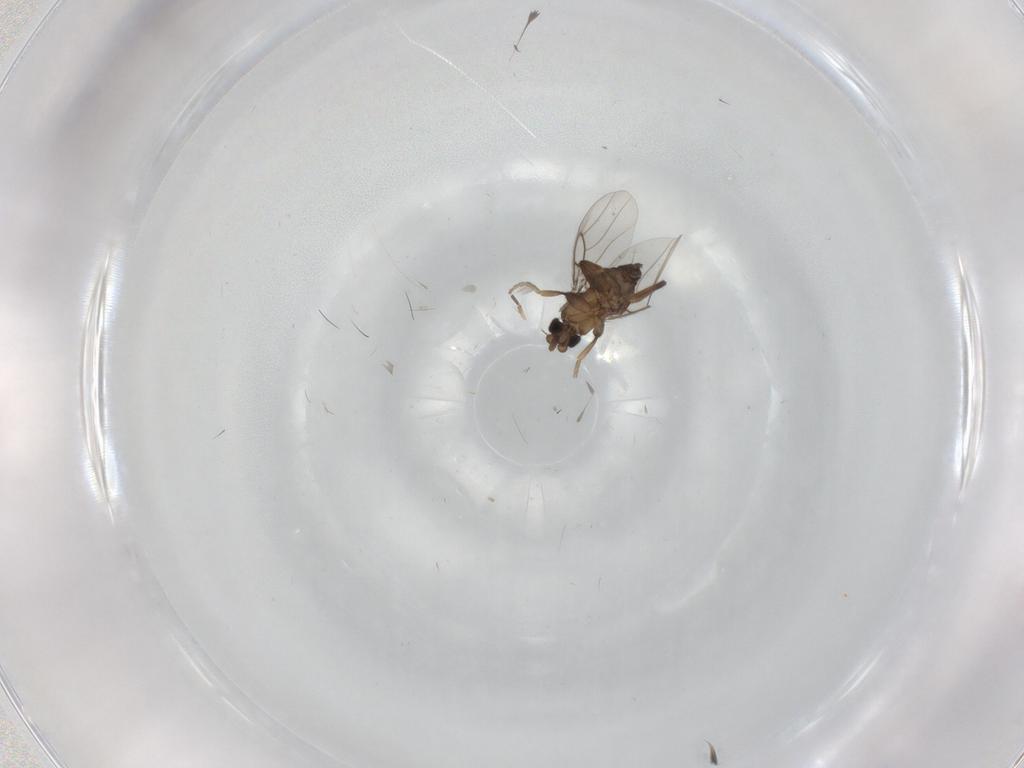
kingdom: Animalia
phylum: Arthropoda
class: Insecta
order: Diptera
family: Phoridae
